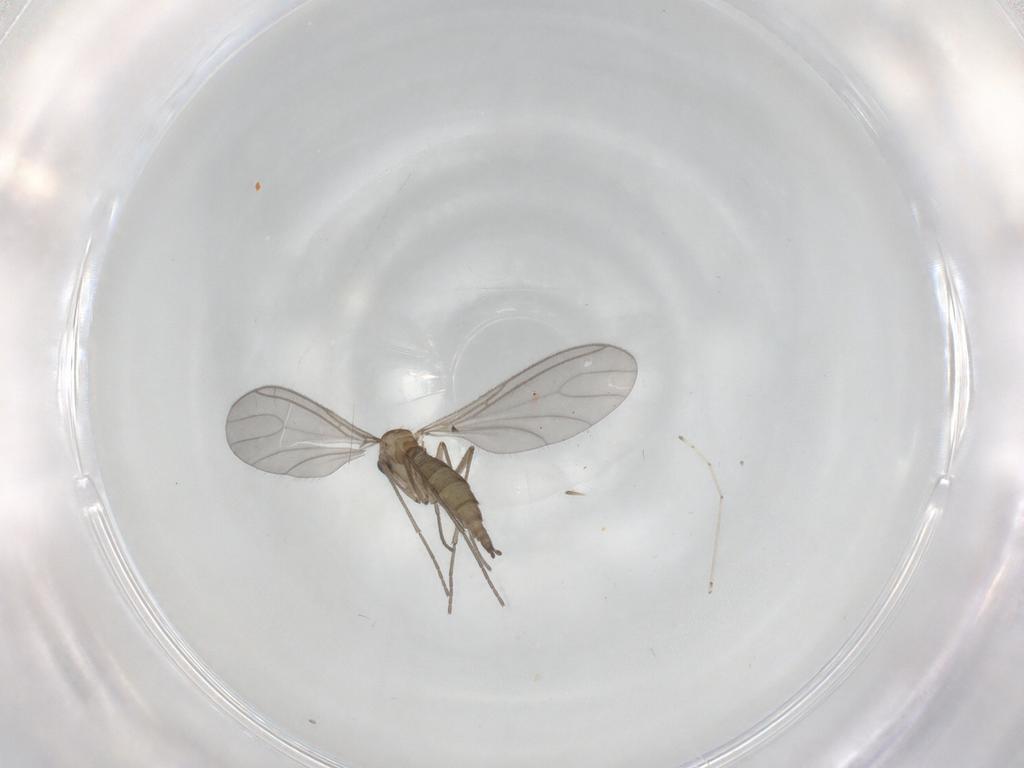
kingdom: Animalia
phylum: Arthropoda
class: Insecta
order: Diptera
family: Sciaridae
